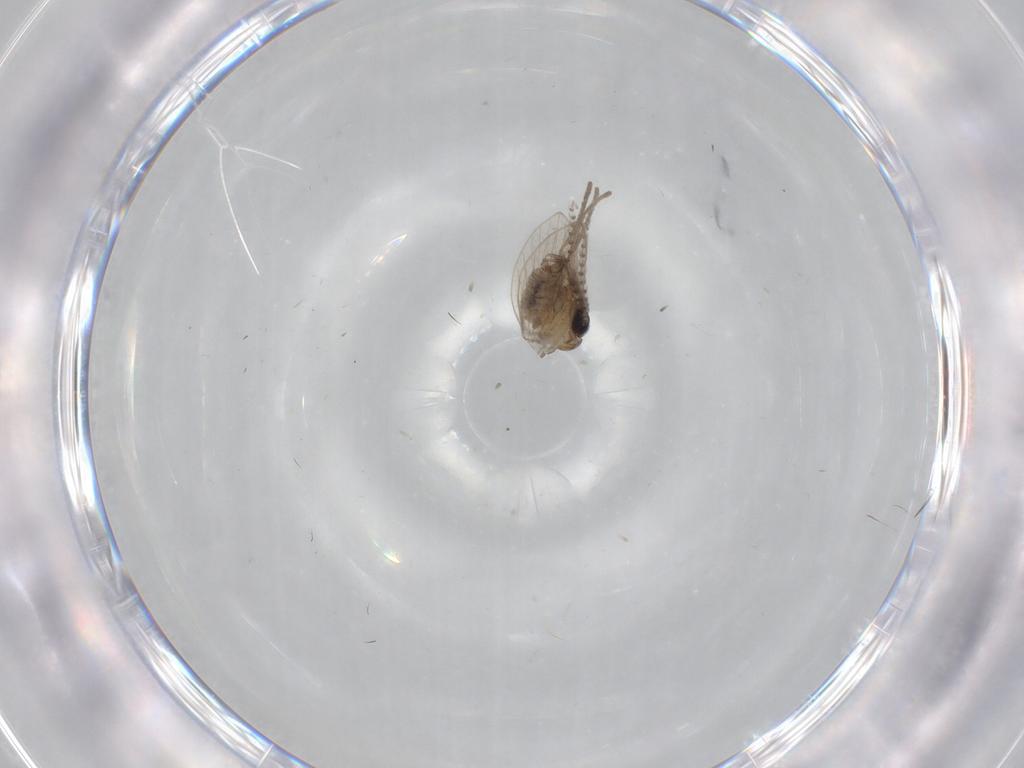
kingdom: Animalia
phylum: Arthropoda
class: Insecta
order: Diptera
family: Psychodidae
